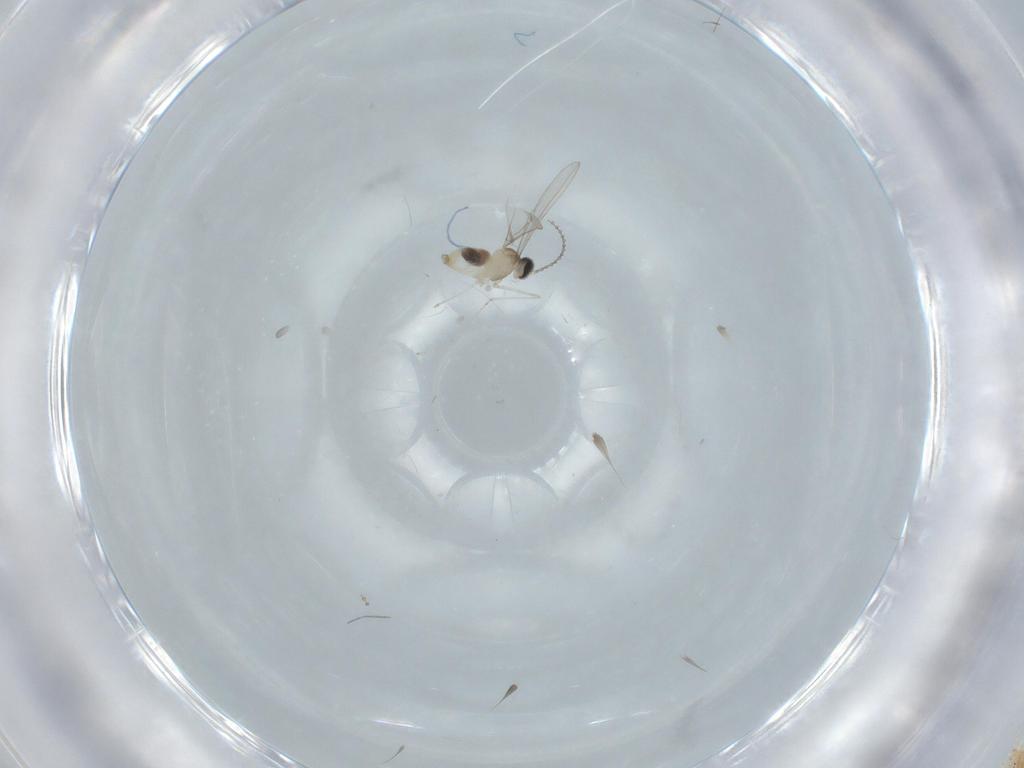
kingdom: Animalia
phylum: Arthropoda
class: Insecta
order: Diptera
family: Cecidomyiidae
